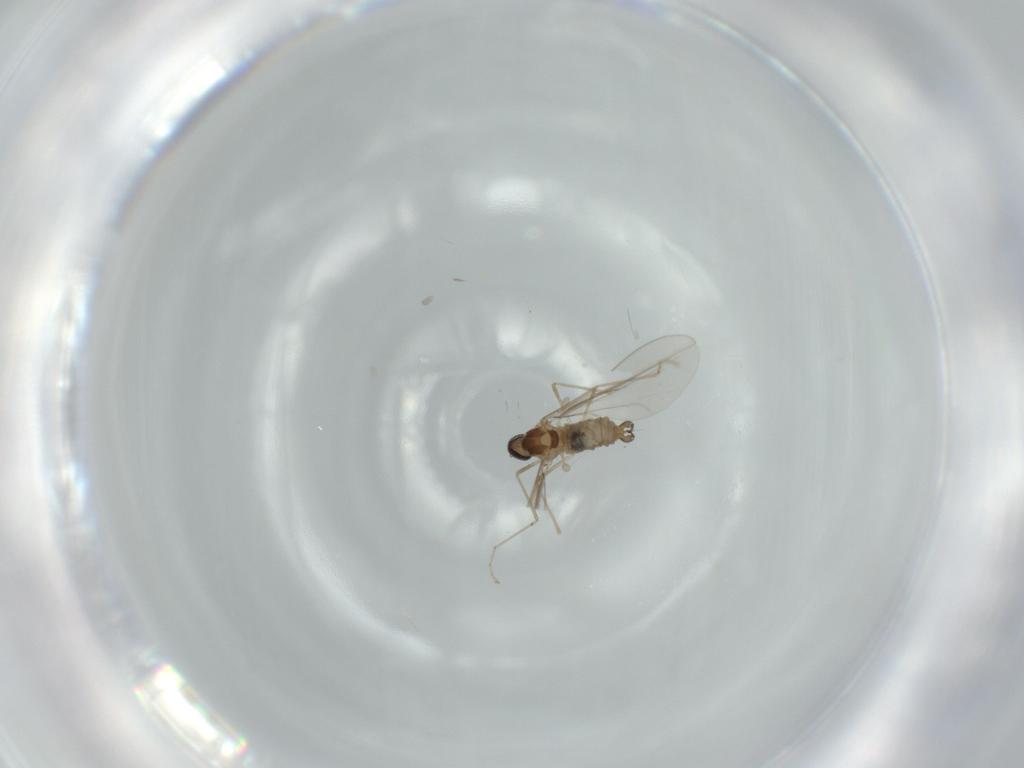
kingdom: Animalia
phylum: Arthropoda
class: Insecta
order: Diptera
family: Cecidomyiidae
